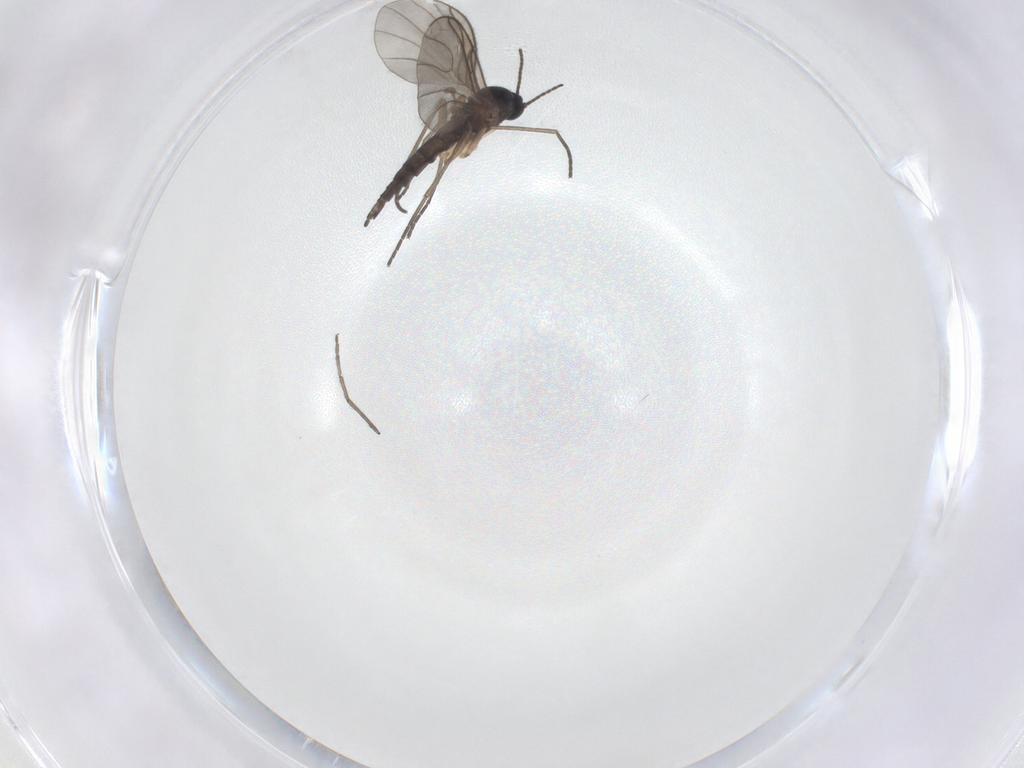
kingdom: Animalia
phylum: Arthropoda
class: Insecta
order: Diptera
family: Sciaridae
